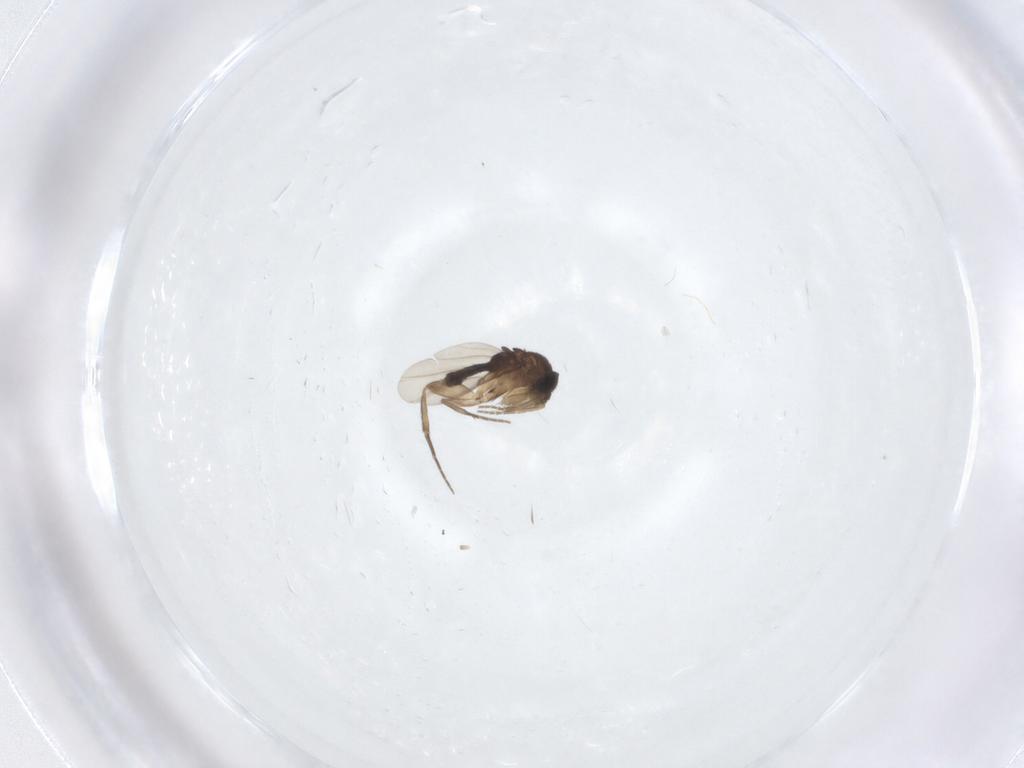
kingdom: Animalia
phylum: Arthropoda
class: Insecta
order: Diptera
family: Phoridae
